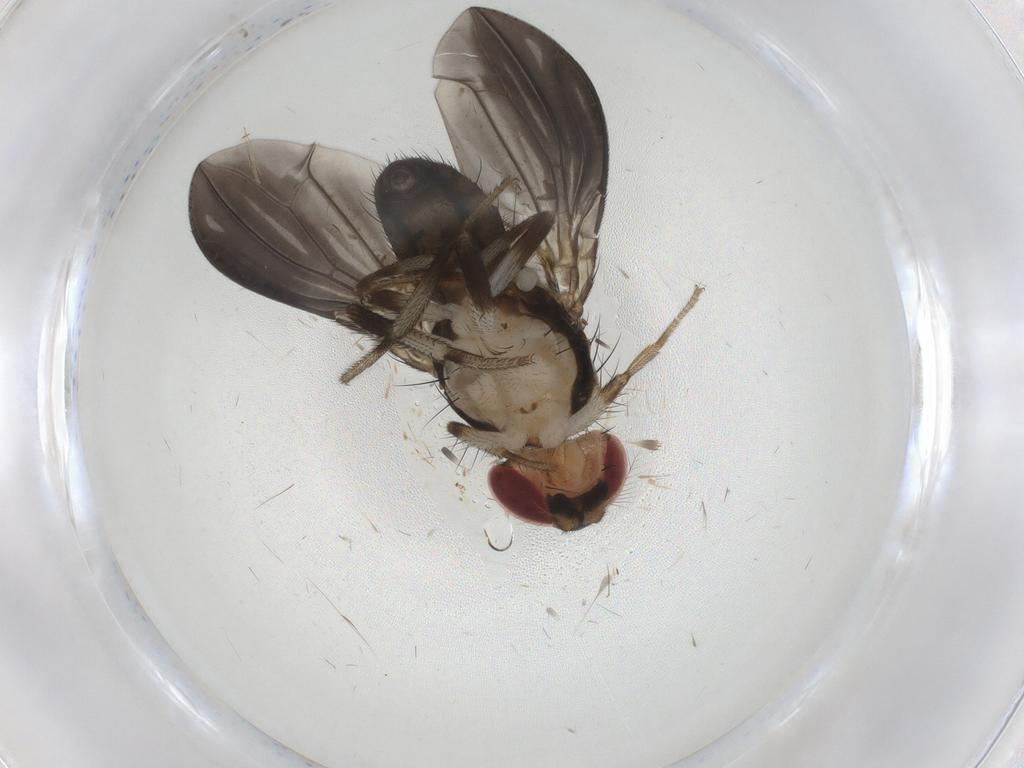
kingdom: Animalia
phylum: Arthropoda
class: Insecta
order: Diptera
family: Drosophilidae
